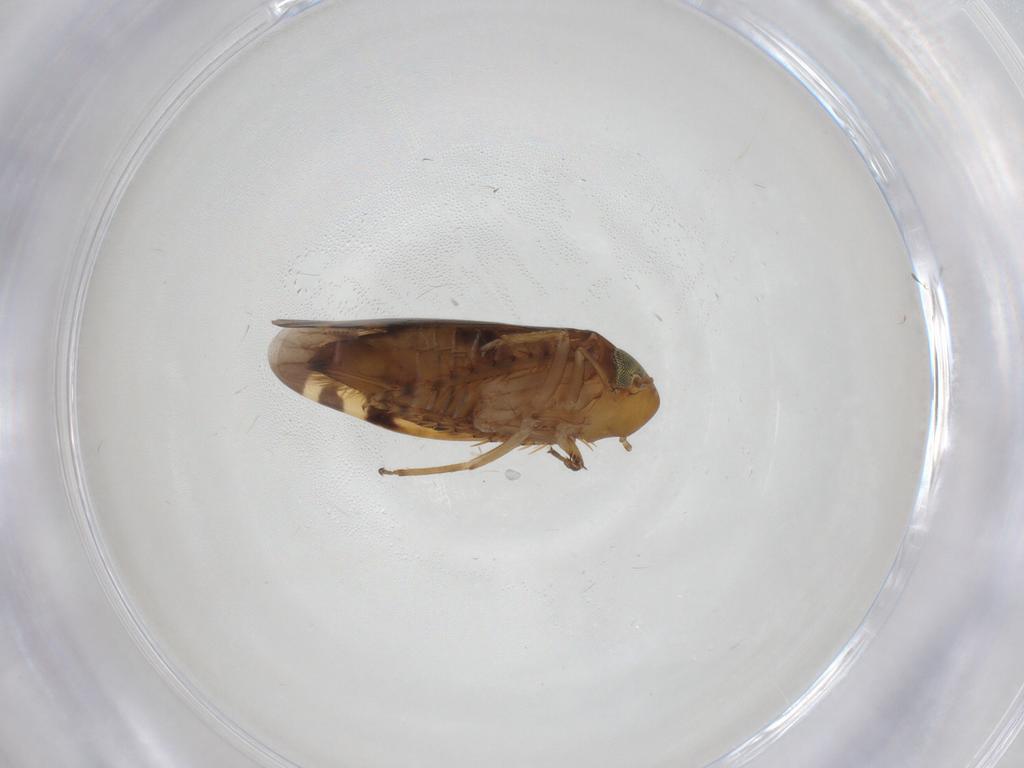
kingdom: Animalia
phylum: Arthropoda
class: Insecta
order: Hemiptera
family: Cicadellidae
